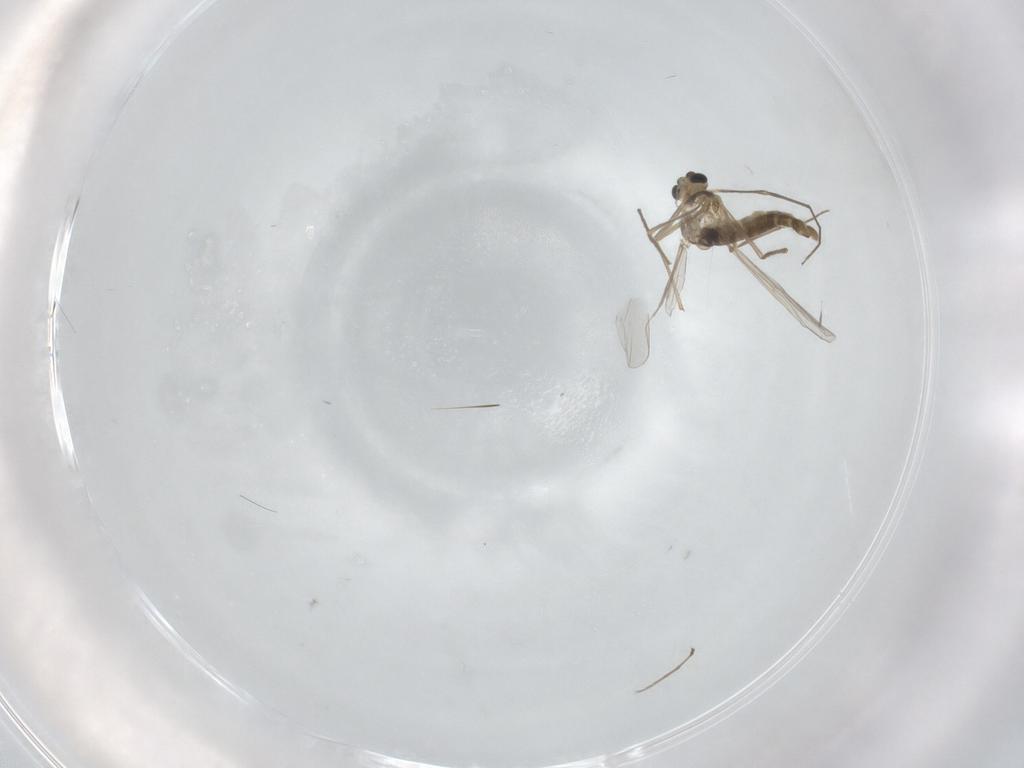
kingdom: Animalia
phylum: Arthropoda
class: Insecta
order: Diptera
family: Chironomidae
